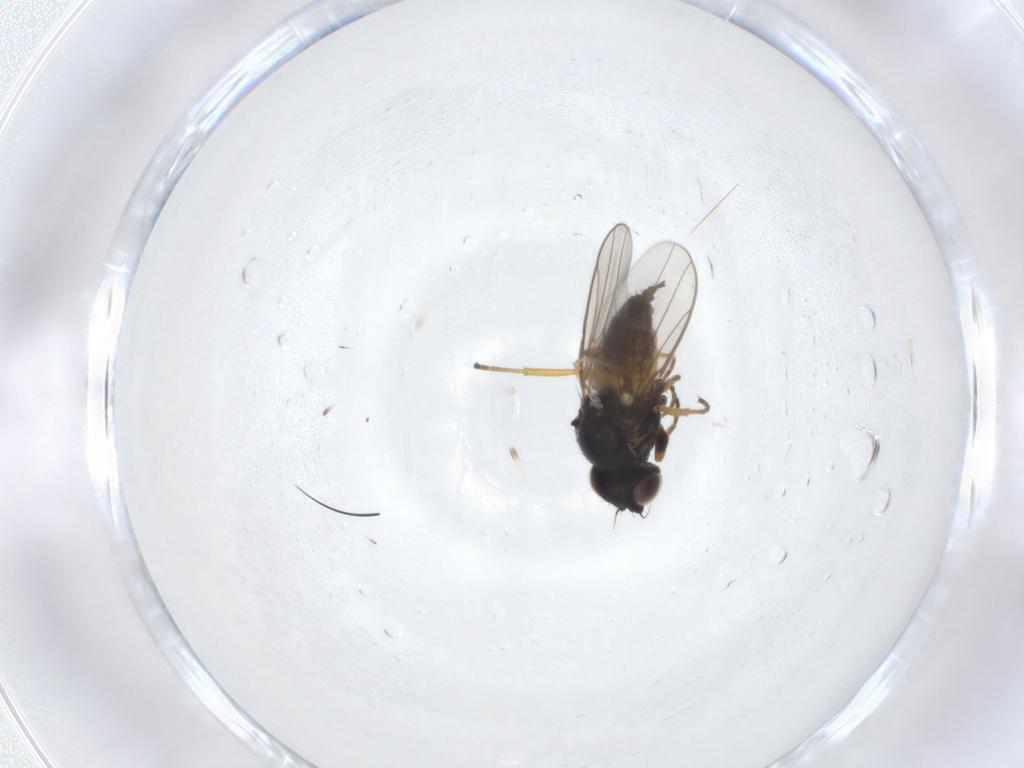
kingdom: Animalia
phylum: Arthropoda
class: Insecta
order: Diptera
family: Chloropidae
